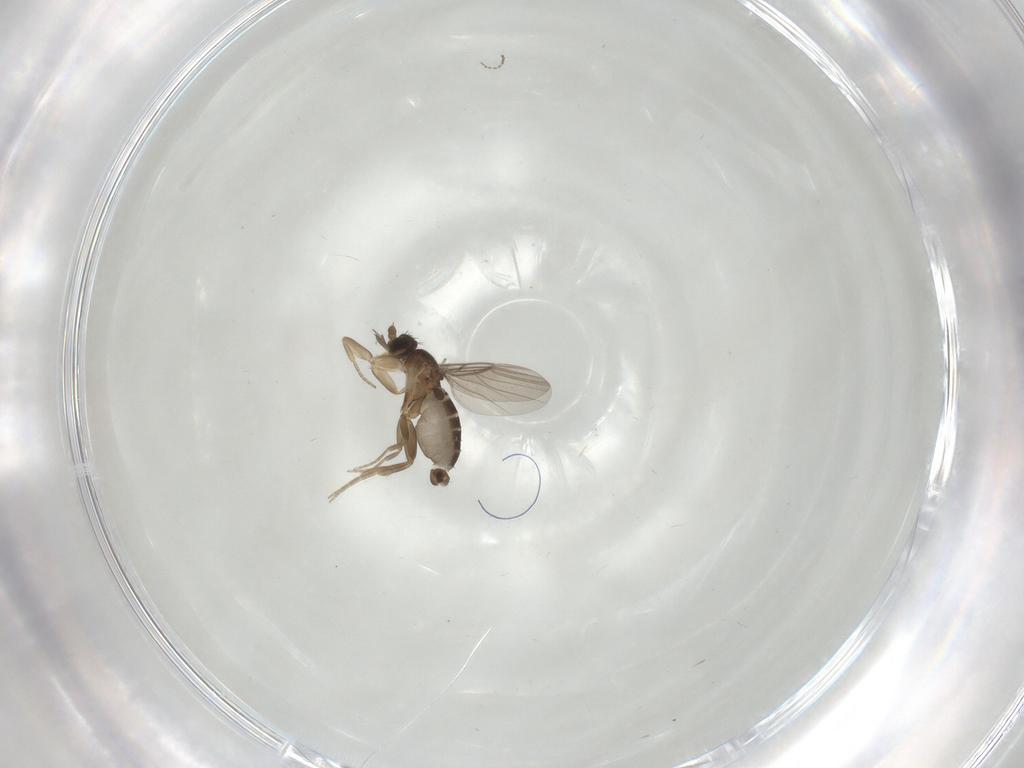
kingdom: Animalia
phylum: Arthropoda
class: Insecta
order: Diptera
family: Phoridae
